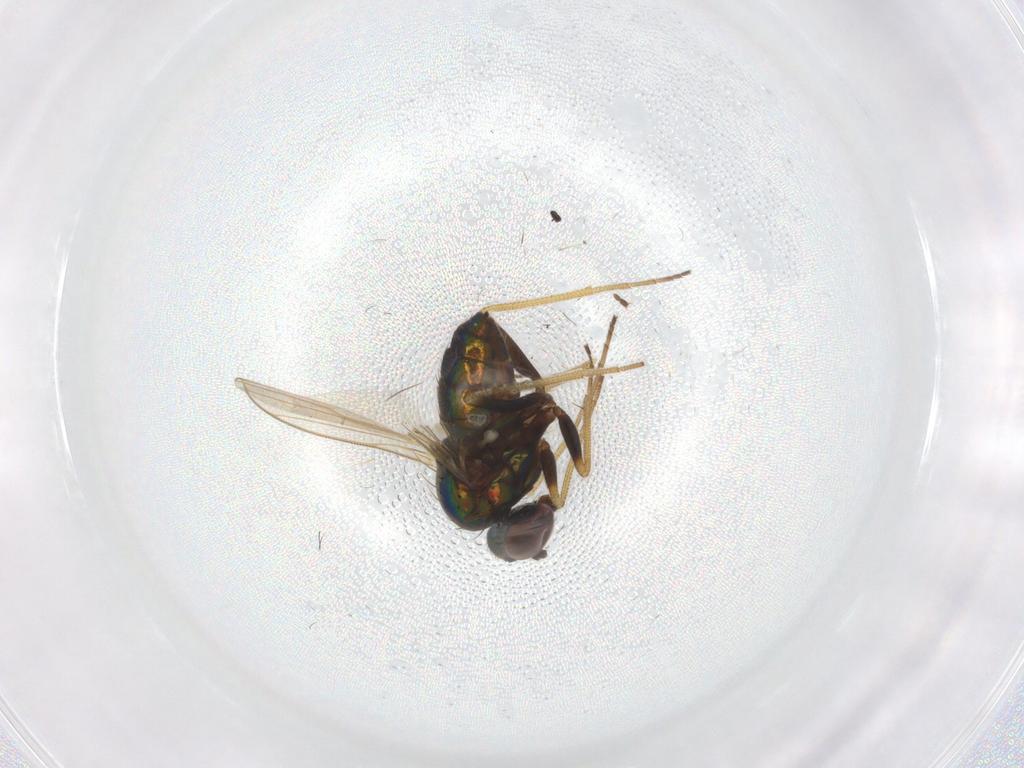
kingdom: Animalia
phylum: Arthropoda
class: Insecta
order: Diptera
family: Dolichopodidae
